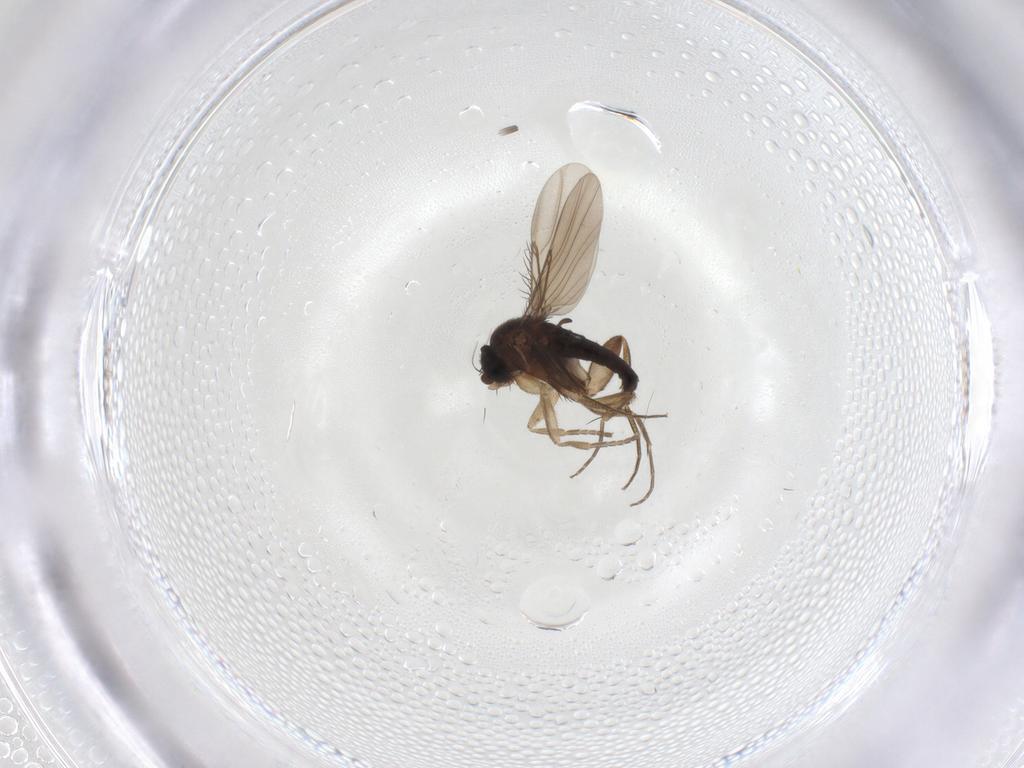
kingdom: Animalia
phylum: Arthropoda
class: Insecta
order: Diptera
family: Phoridae
